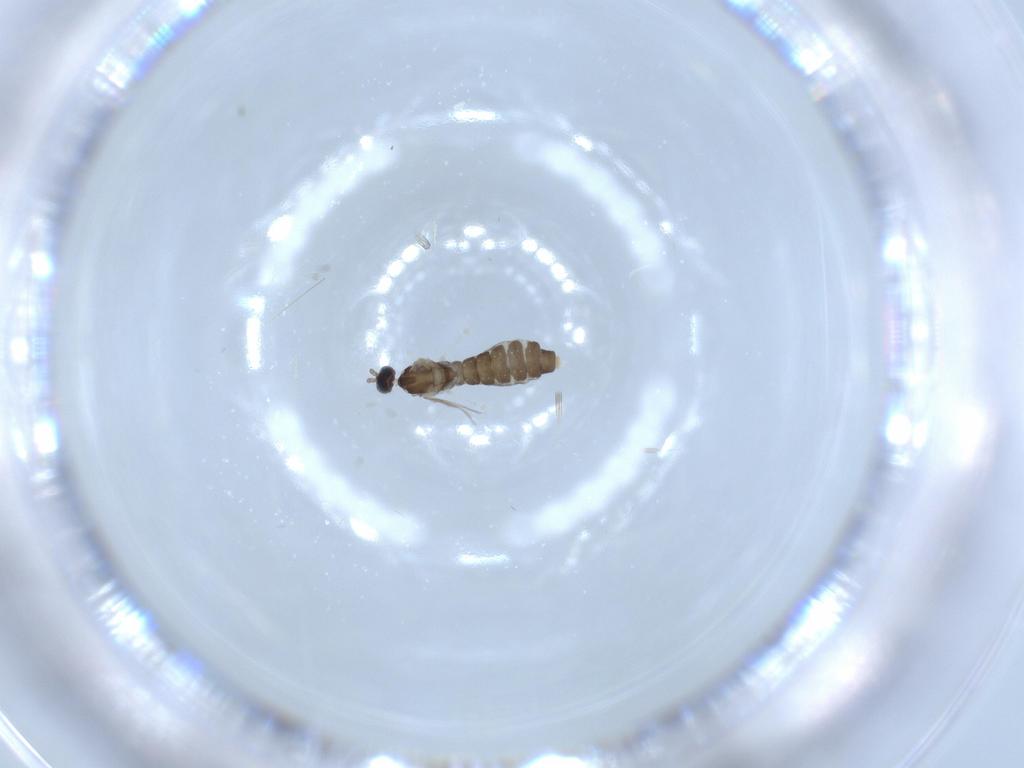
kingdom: Animalia
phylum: Arthropoda
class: Insecta
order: Diptera
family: Cecidomyiidae
